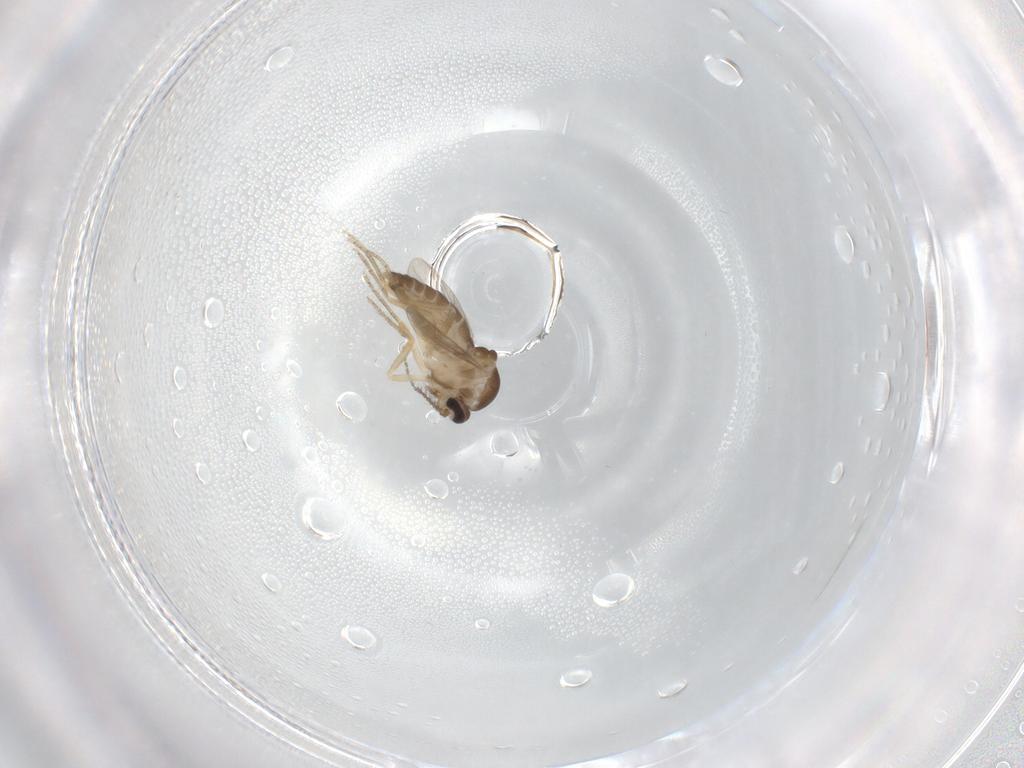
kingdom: Animalia
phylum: Arthropoda
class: Insecta
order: Diptera
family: Ceratopogonidae
